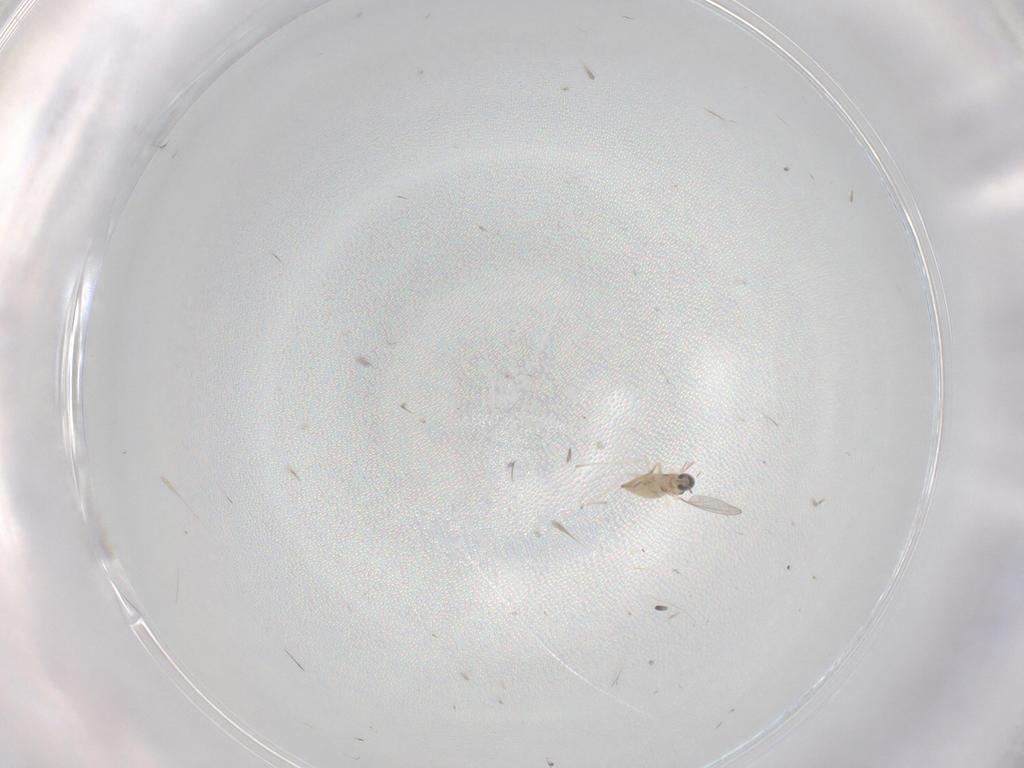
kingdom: Animalia
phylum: Arthropoda
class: Insecta
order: Diptera
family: Cecidomyiidae
